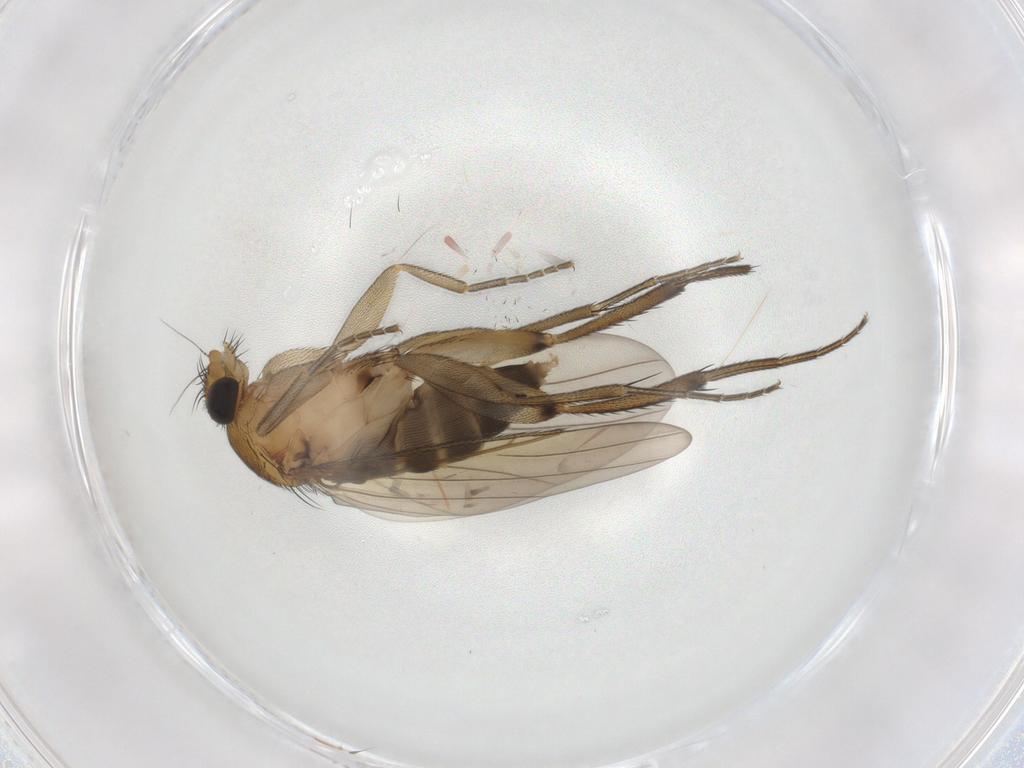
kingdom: Animalia
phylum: Arthropoda
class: Insecta
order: Diptera
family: Phoridae
